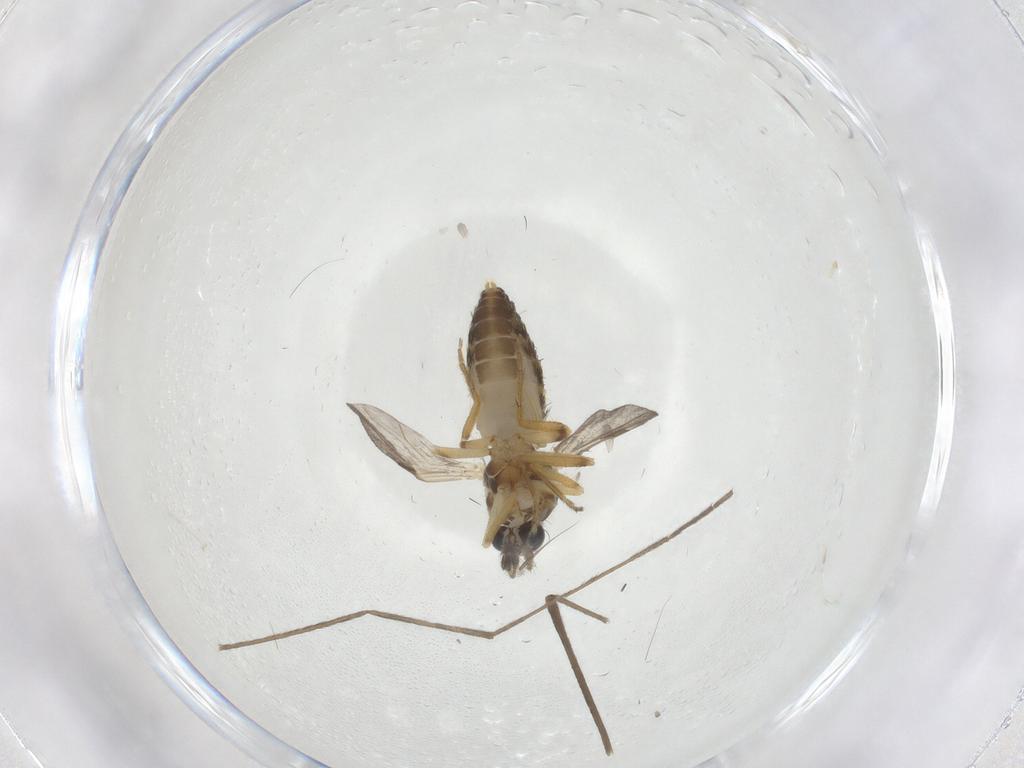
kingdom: Animalia
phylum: Arthropoda
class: Insecta
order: Diptera
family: Ceratopogonidae
